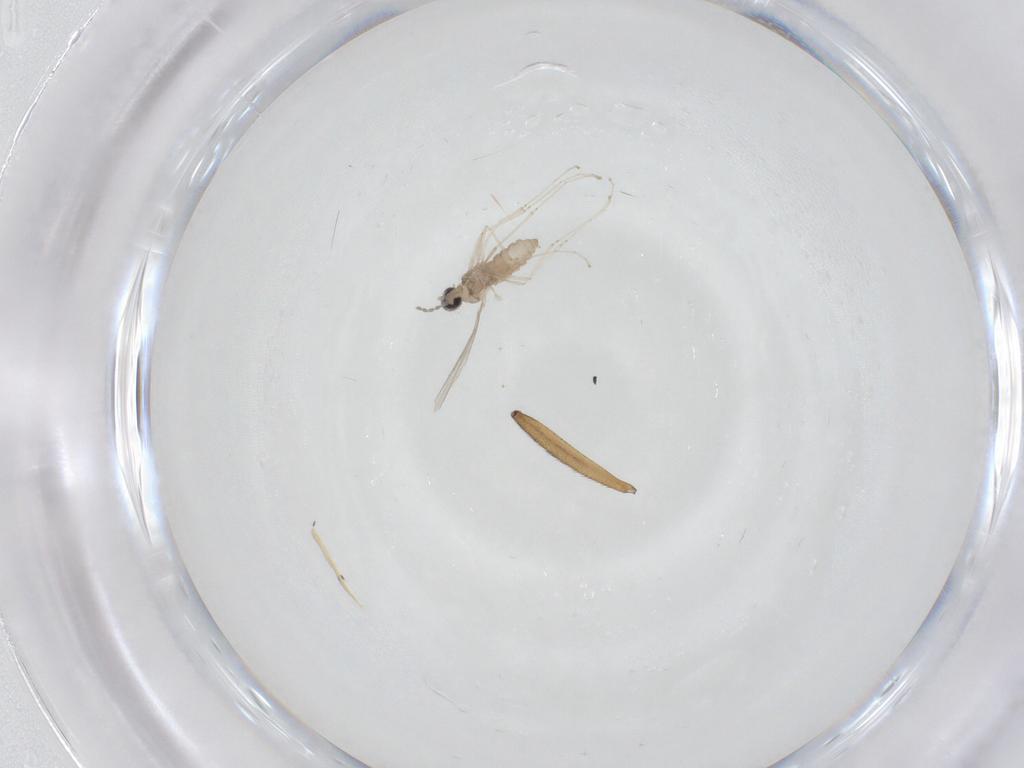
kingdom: Animalia
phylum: Arthropoda
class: Insecta
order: Diptera
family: Cecidomyiidae
